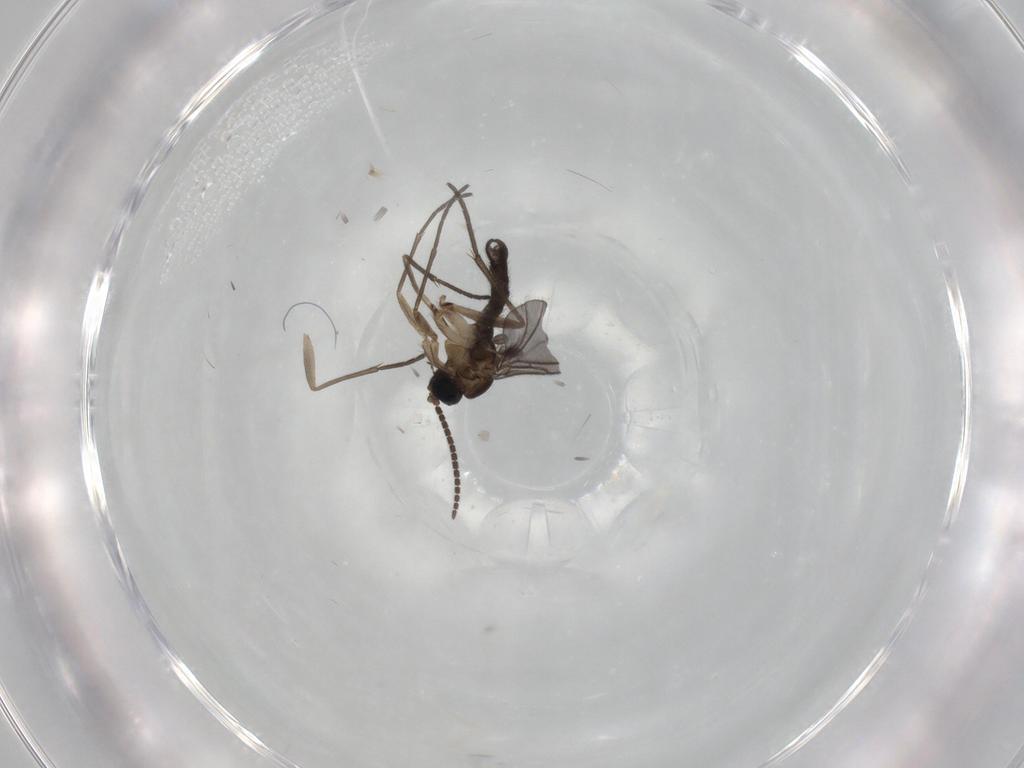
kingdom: Animalia
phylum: Arthropoda
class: Insecta
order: Diptera
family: Sciaridae
